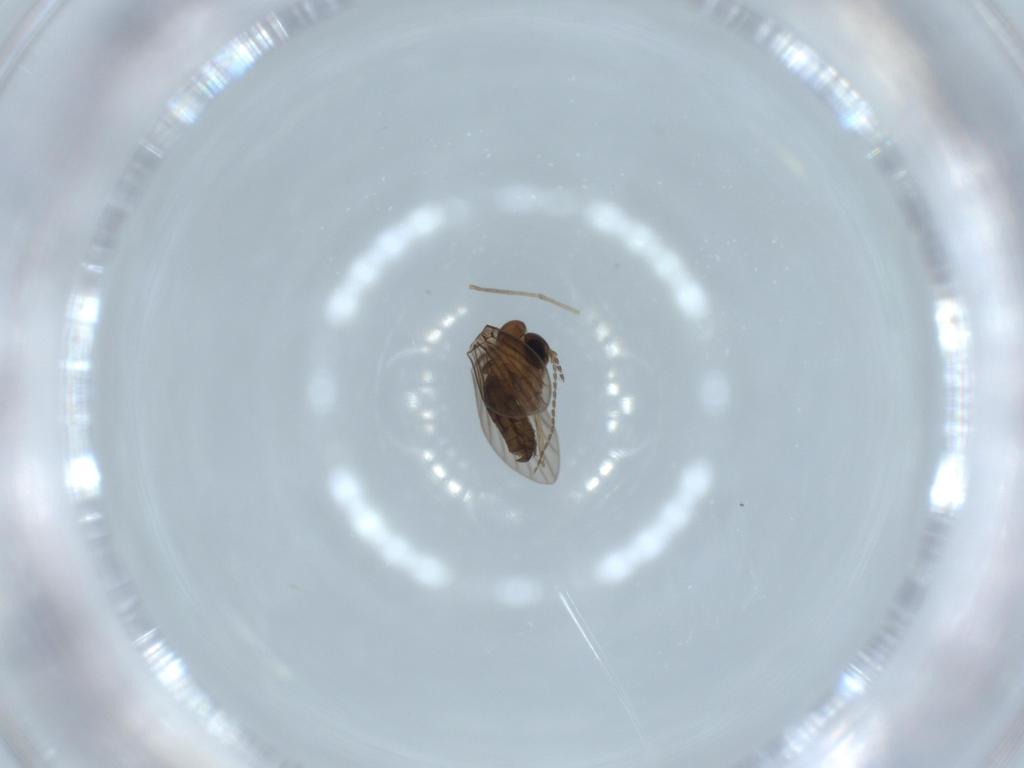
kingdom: Animalia
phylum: Arthropoda
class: Insecta
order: Diptera
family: Psychodidae
